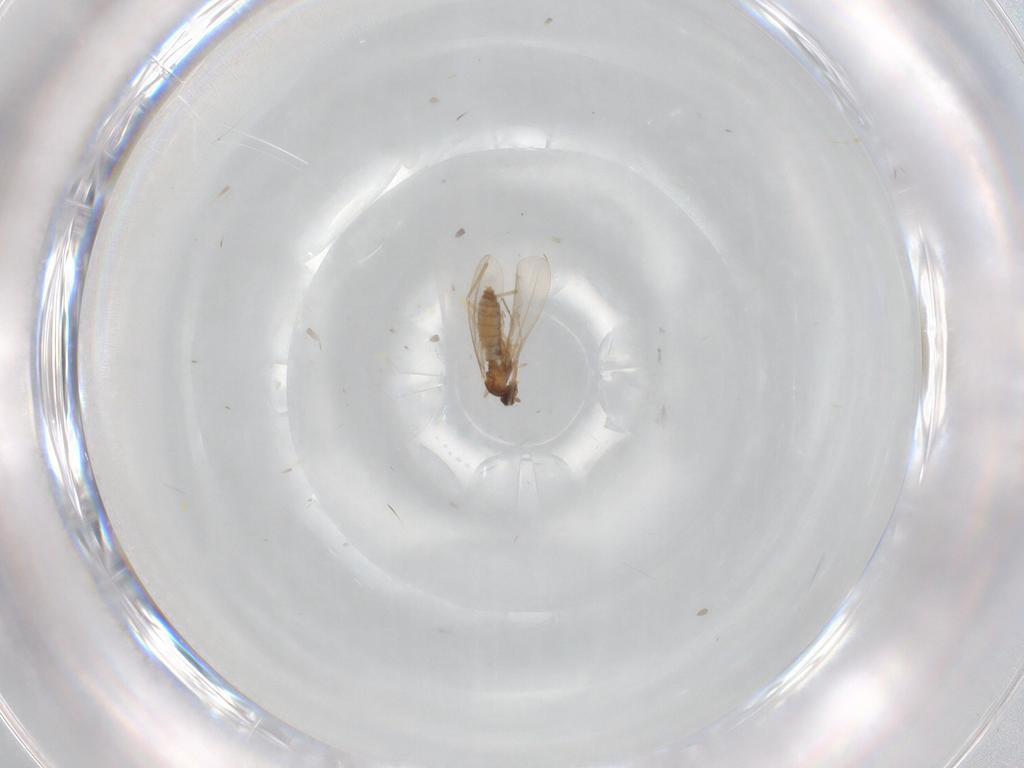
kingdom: Animalia
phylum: Arthropoda
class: Insecta
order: Diptera
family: Cecidomyiidae
